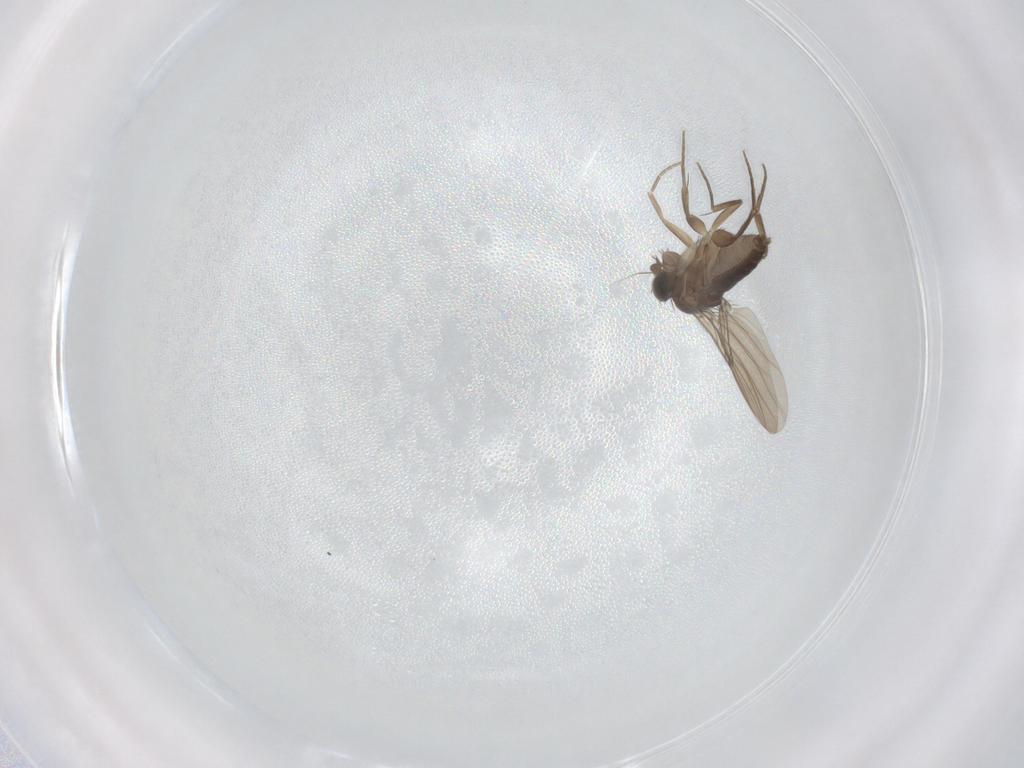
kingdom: Animalia
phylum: Arthropoda
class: Insecta
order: Diptera
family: Phoridae
